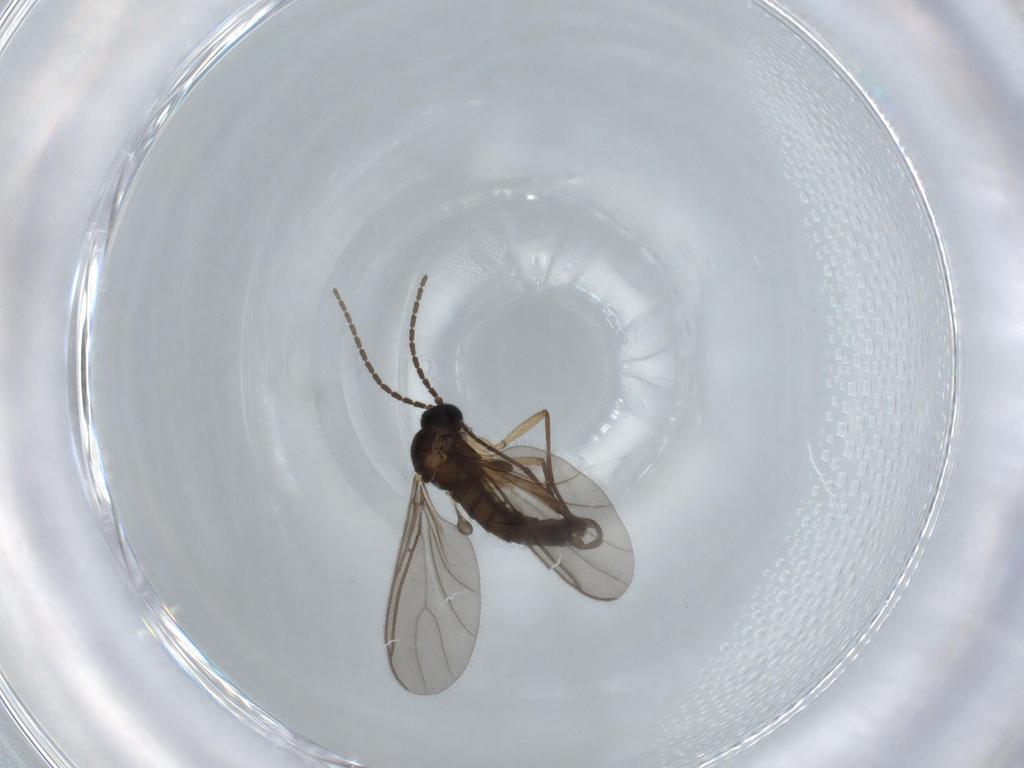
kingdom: Animalia
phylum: Arthropoda
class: Insecta
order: Diptera
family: Sciaridae
